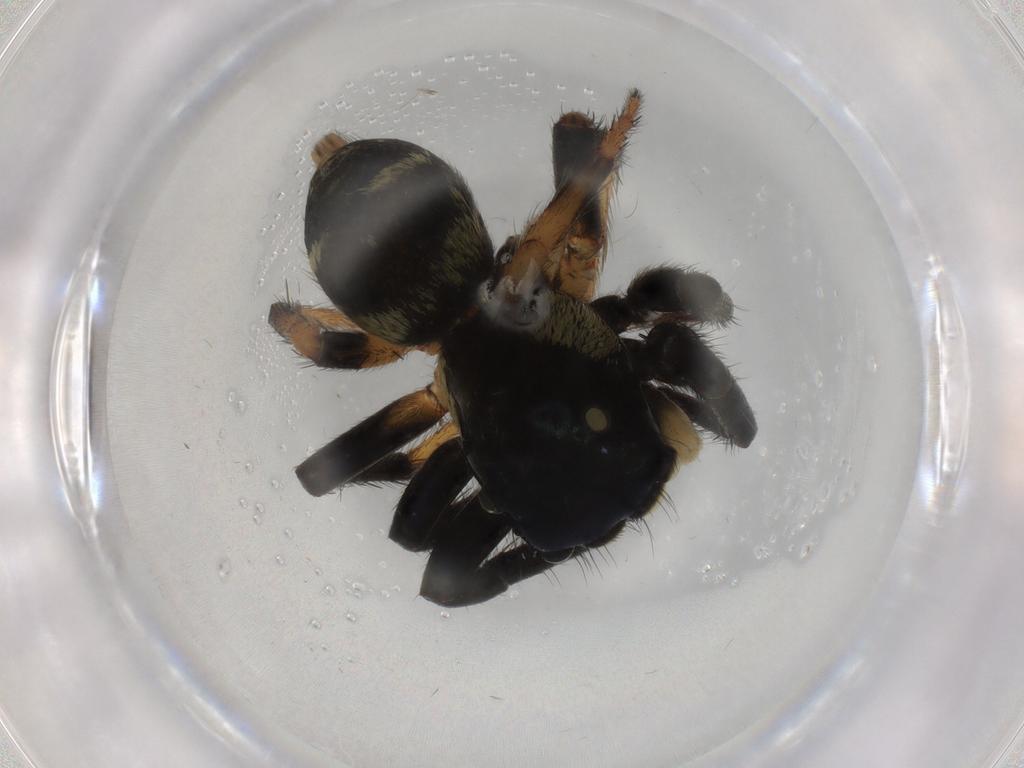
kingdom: Animalia
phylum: Arthropoda
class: Arachnida
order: Araneae
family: Salticidae
